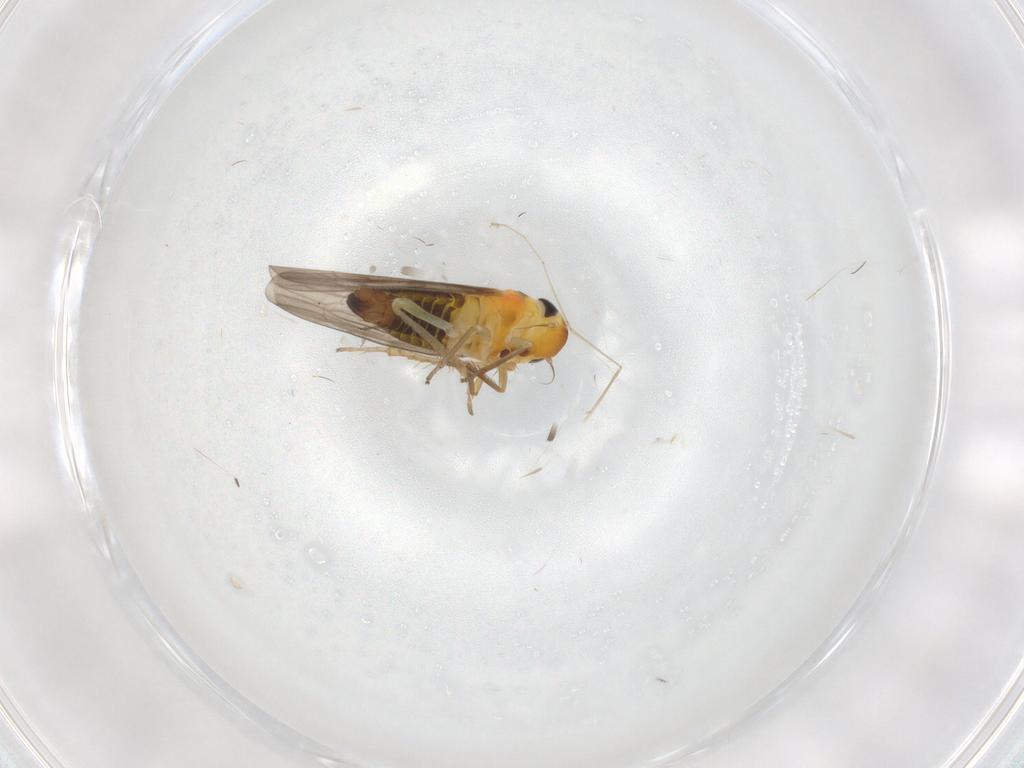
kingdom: Animalia
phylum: Arthropoda
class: Insecta
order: Hemiptera
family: Cicadellidae
